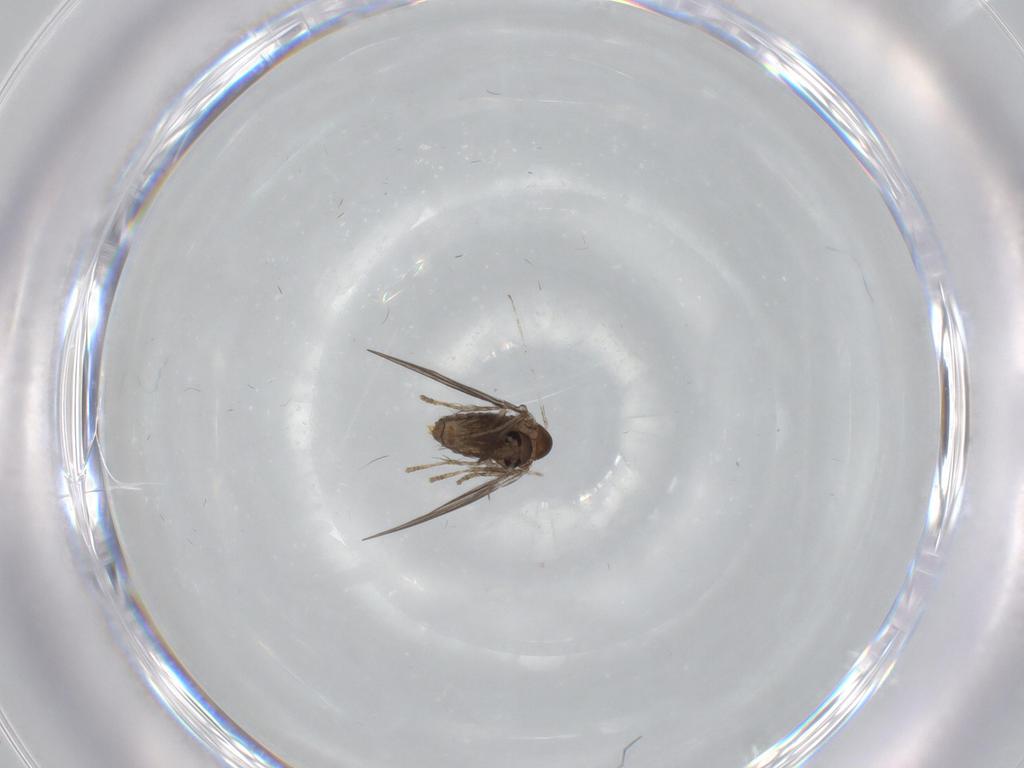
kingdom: Animalia
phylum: Arthropoda
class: Insecta
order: Diptera
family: Psychodidae
